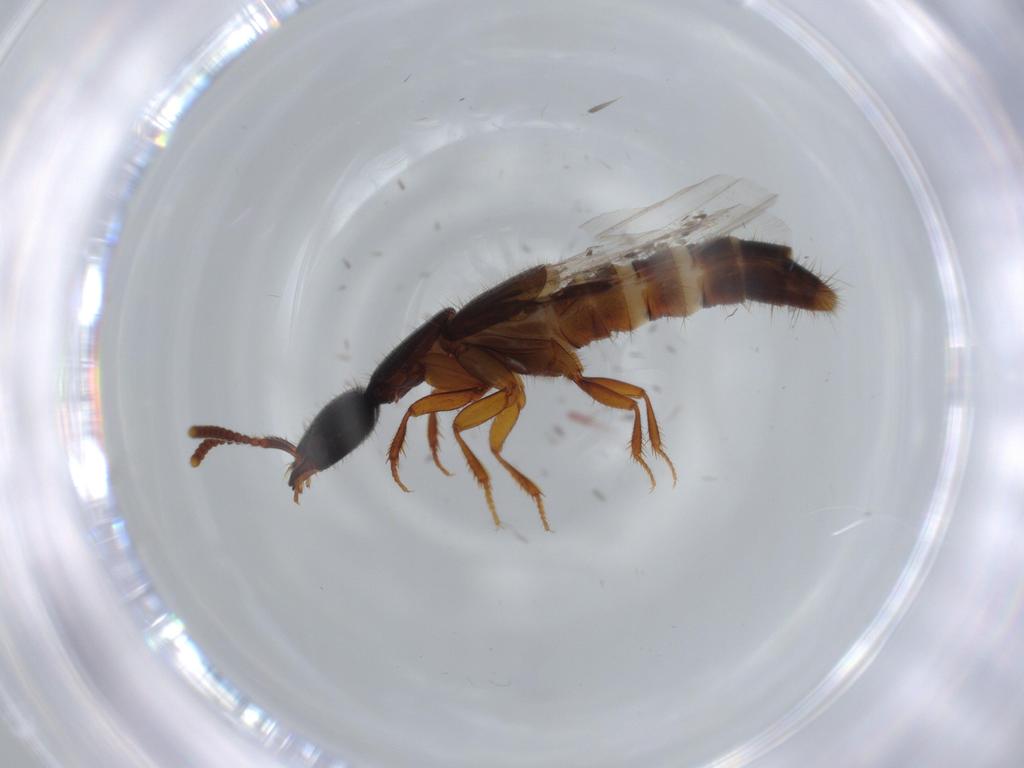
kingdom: Animalia
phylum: Arthropoda
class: Insecta
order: Coleoptera
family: Staphylinidae
